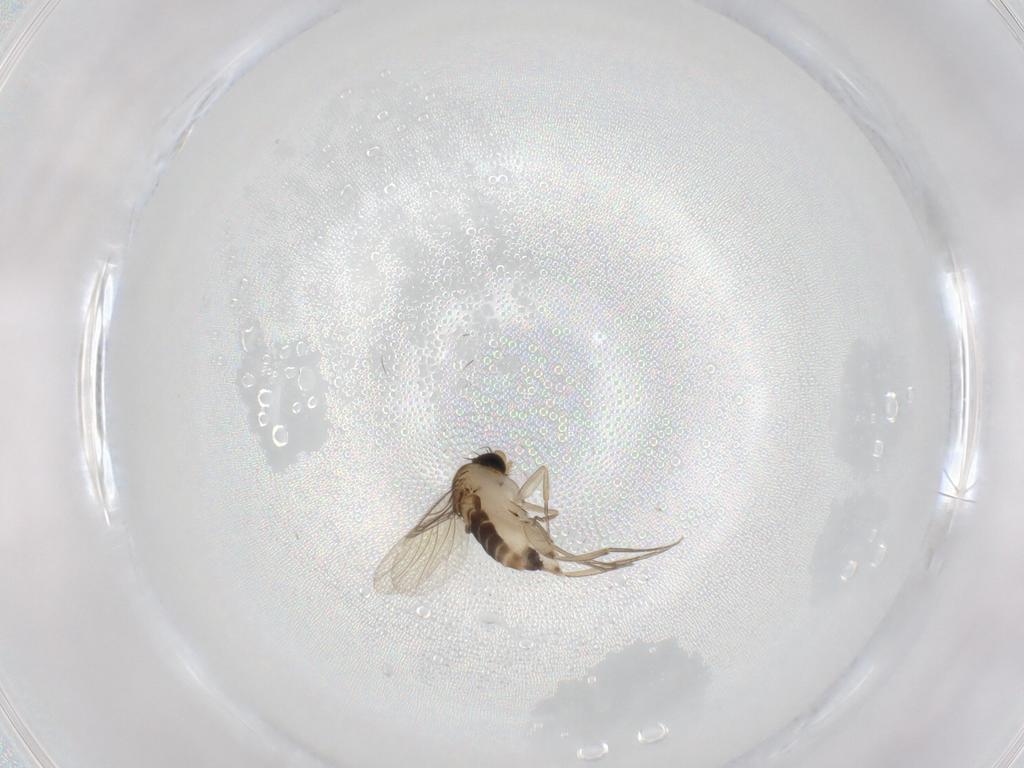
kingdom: Animalia
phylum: Arthropoda
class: Insecta
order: Diptera
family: Phoridae
